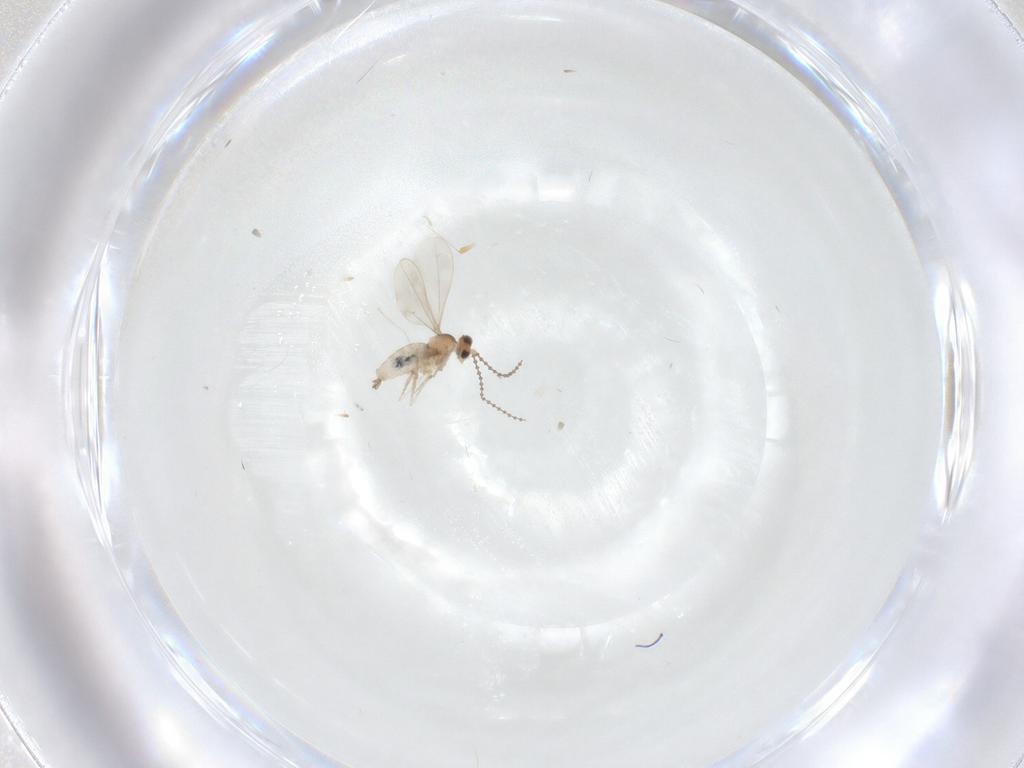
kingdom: Animalia
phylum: Arthropoda
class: Insecta
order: Diptera
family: Cecidomyiidae
